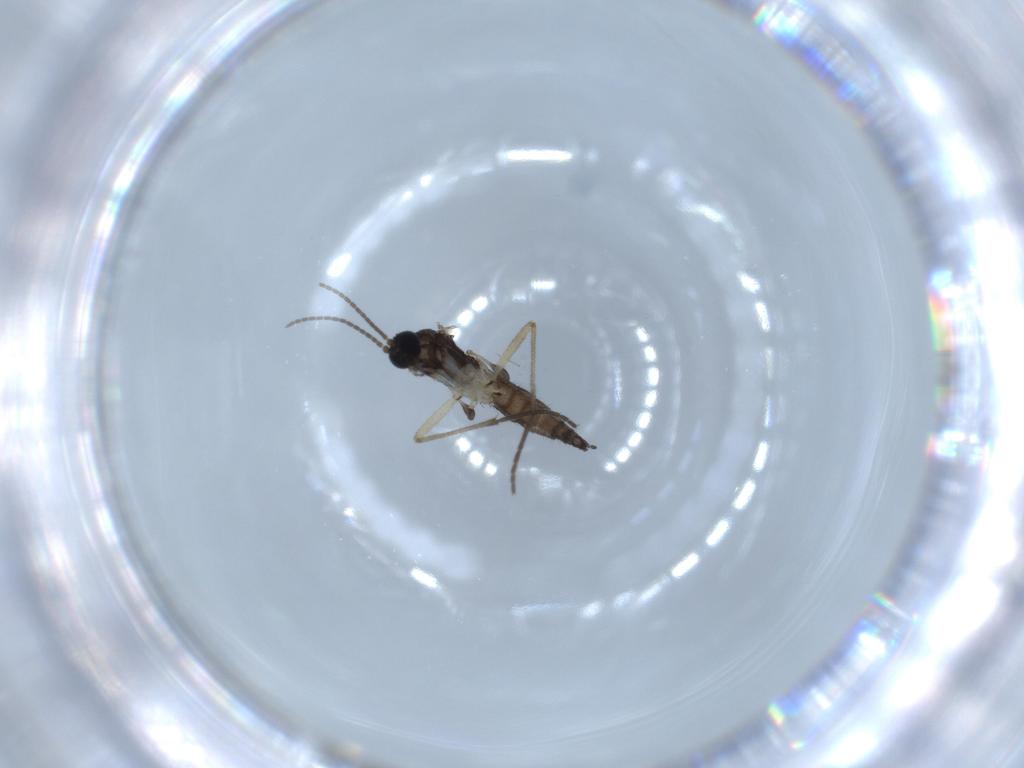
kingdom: Animalia
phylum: Arthropoda
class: Insecta
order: Diptera
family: Sciaridae
